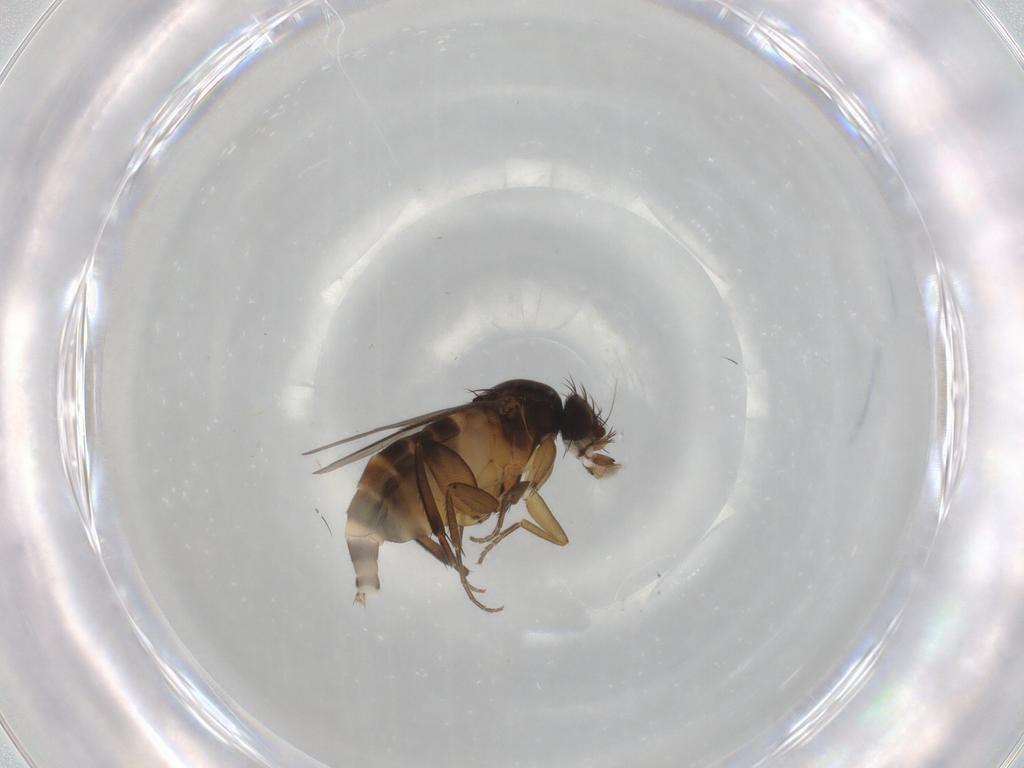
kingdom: Animalia
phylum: Arthropoda
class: Insecta
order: Diptera
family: Phoridae
